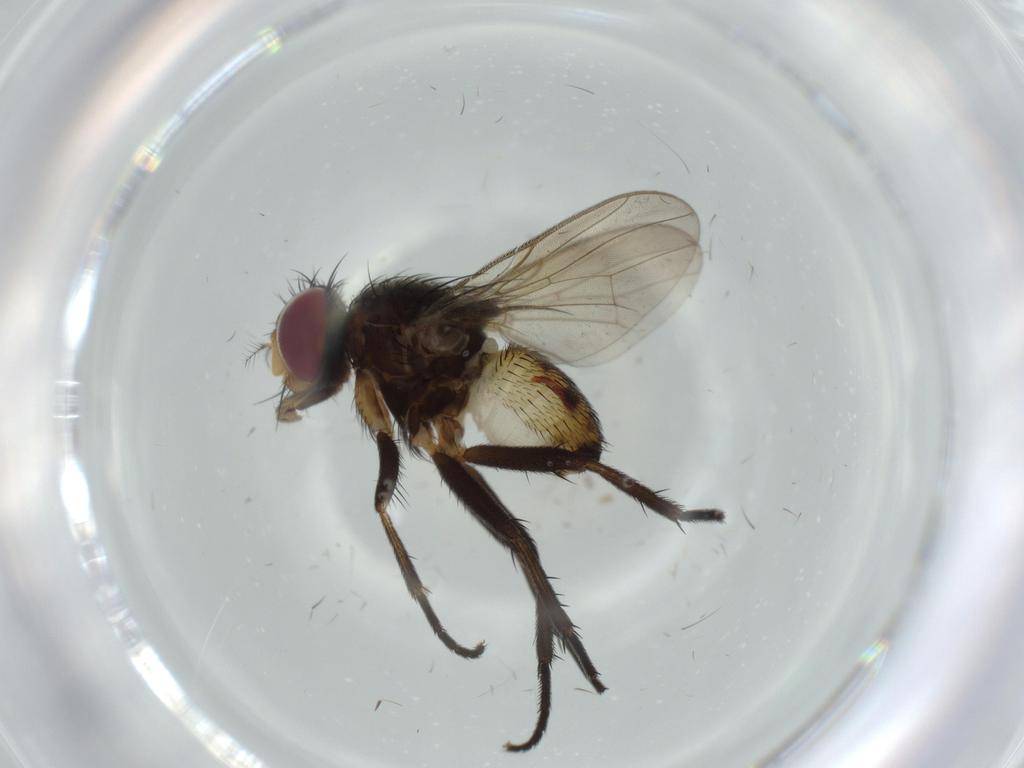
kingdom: Animalia
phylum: Arthropoda
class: Insecta
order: Diptera
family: Anthomyiidae
